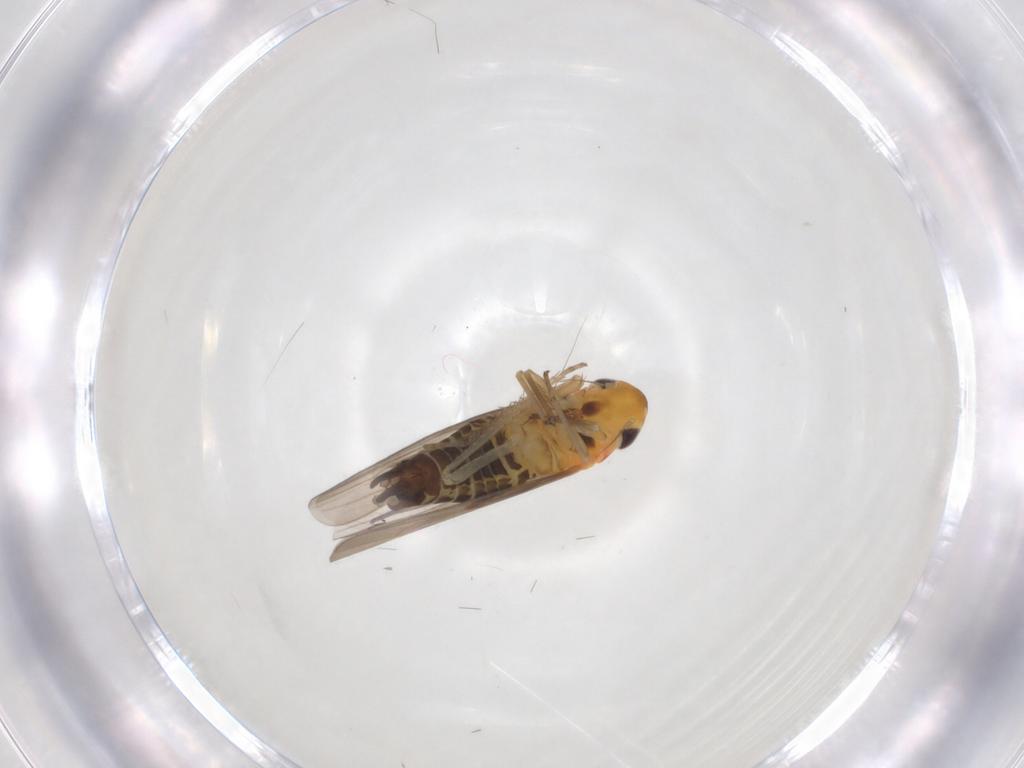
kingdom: Animalia
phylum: Arthropoda
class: Insecta
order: Hemiptera
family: Cicadellidae
